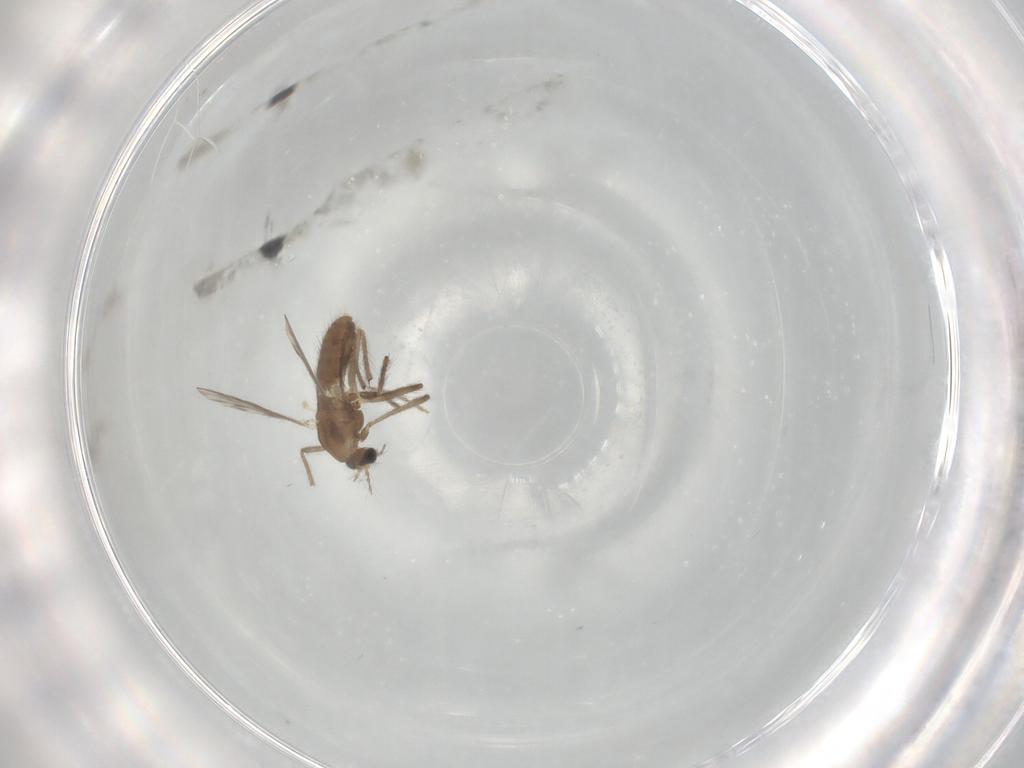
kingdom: Animalia
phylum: Arthropoda
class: Insecta
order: Diptera
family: Chironomidae
